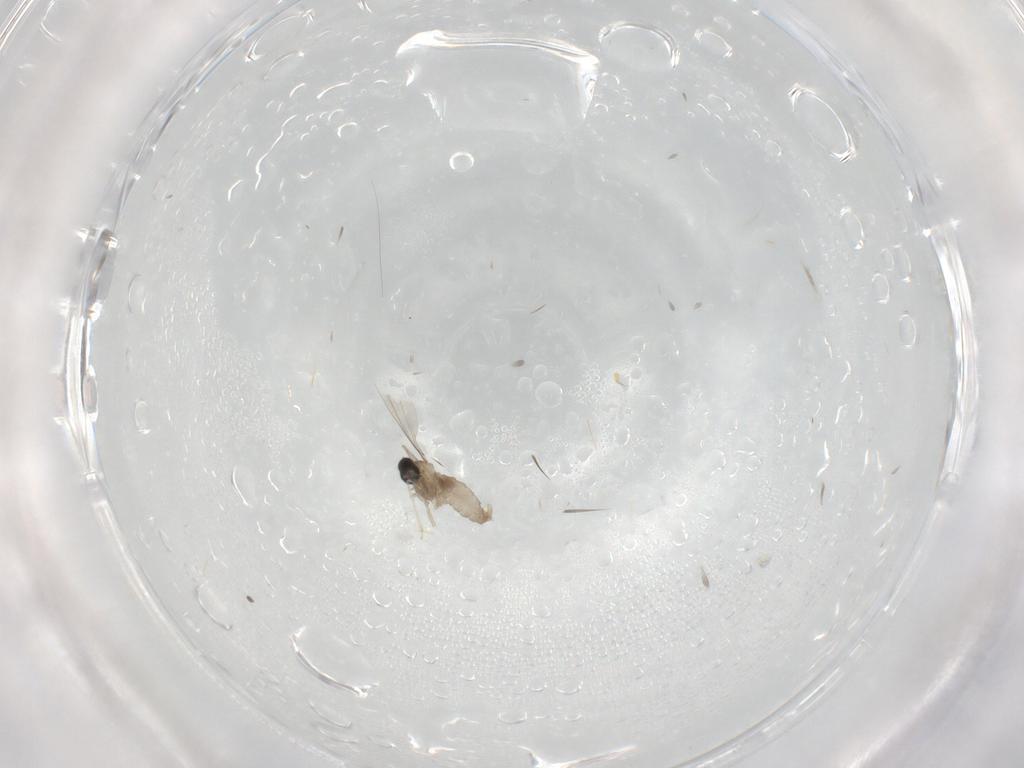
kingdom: Animalia
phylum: Arthropoda
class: Insecta
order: Diptera
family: Cecidomyiidae
